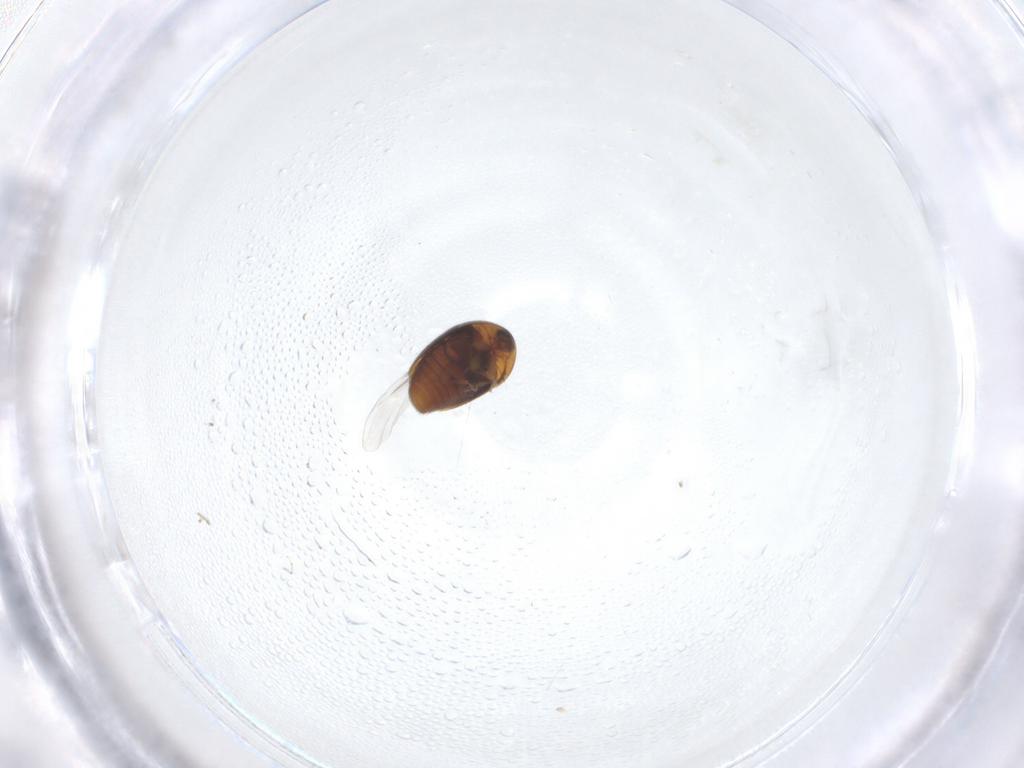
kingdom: Animalia
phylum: Arthropoda
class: Insecta
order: Coleoptera
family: Corylophidae
